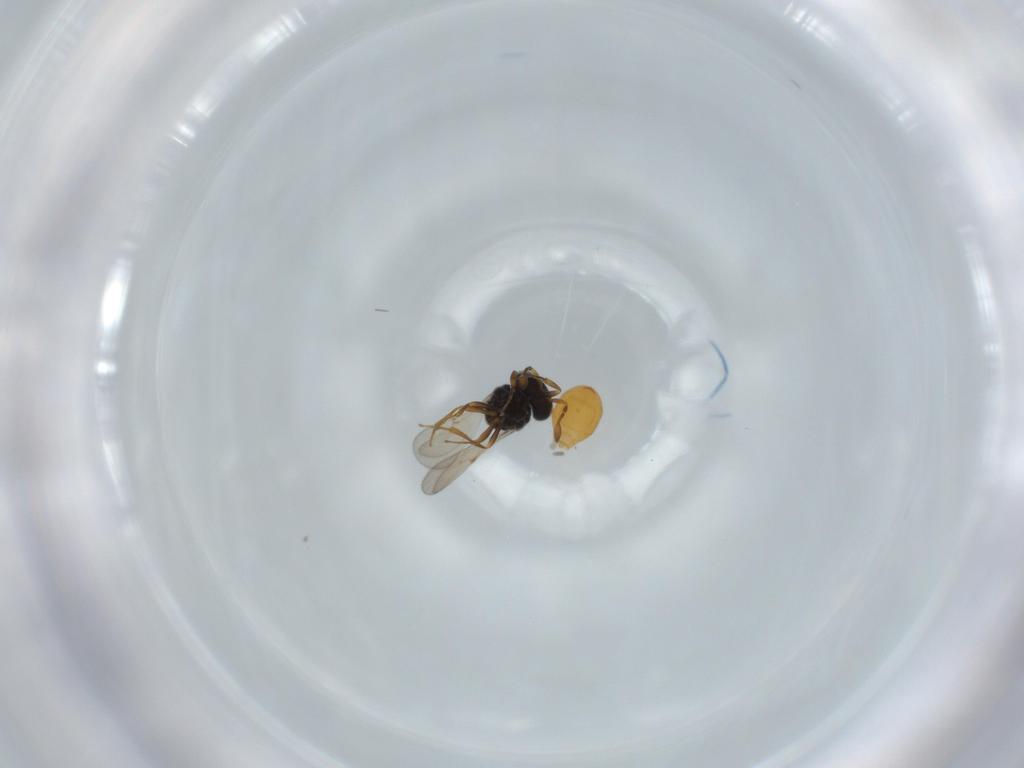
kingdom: Animalia
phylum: Arthropoda
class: Insecta
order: Hymenoptera
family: Scelionidae
